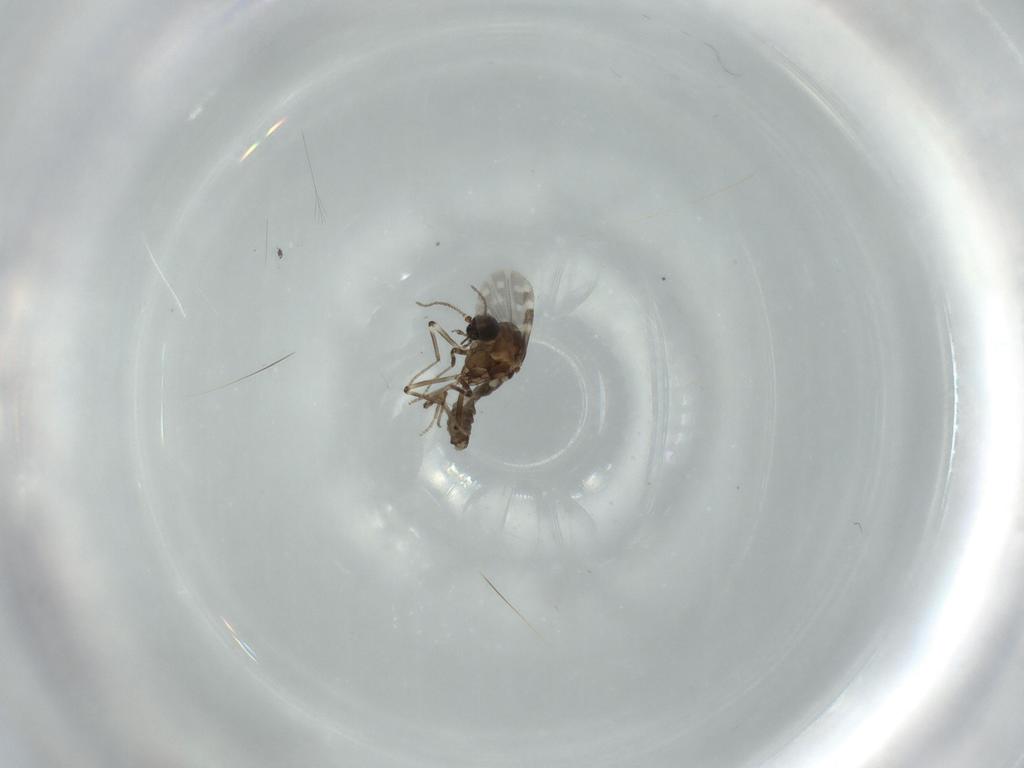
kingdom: Animalia
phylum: Arthropoda
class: Insecta
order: Diptera
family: Ceratopogonidae
